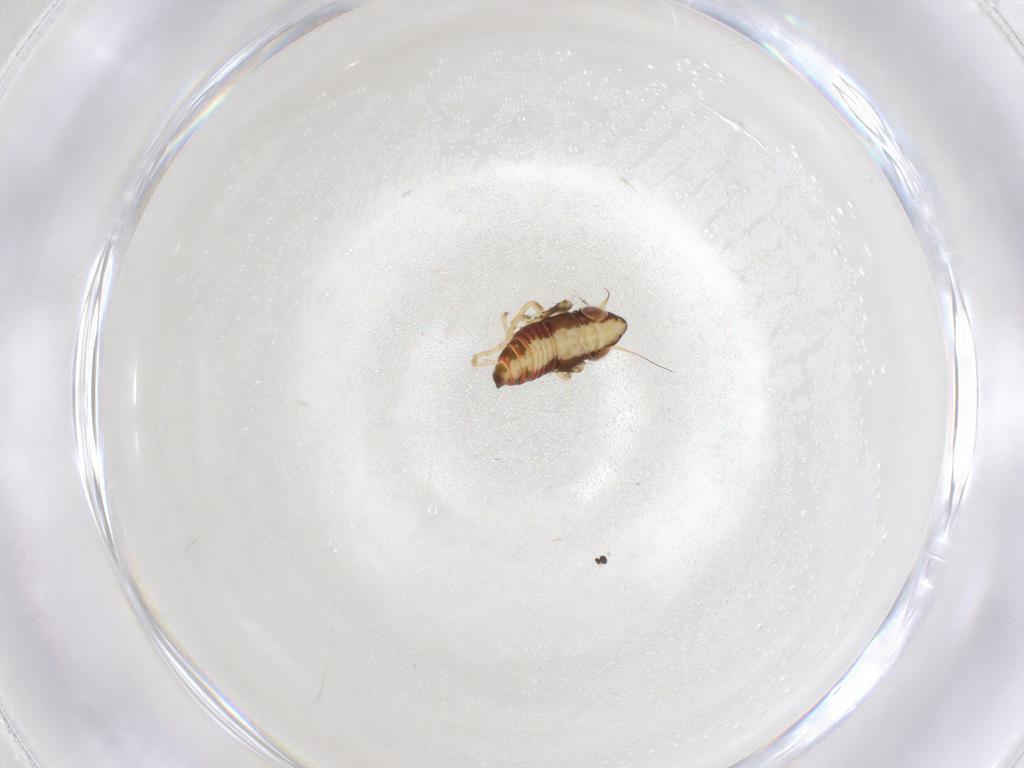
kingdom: Animalia
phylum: Arthropoda
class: Insecta
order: Hemiptera
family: Cicadellidae
